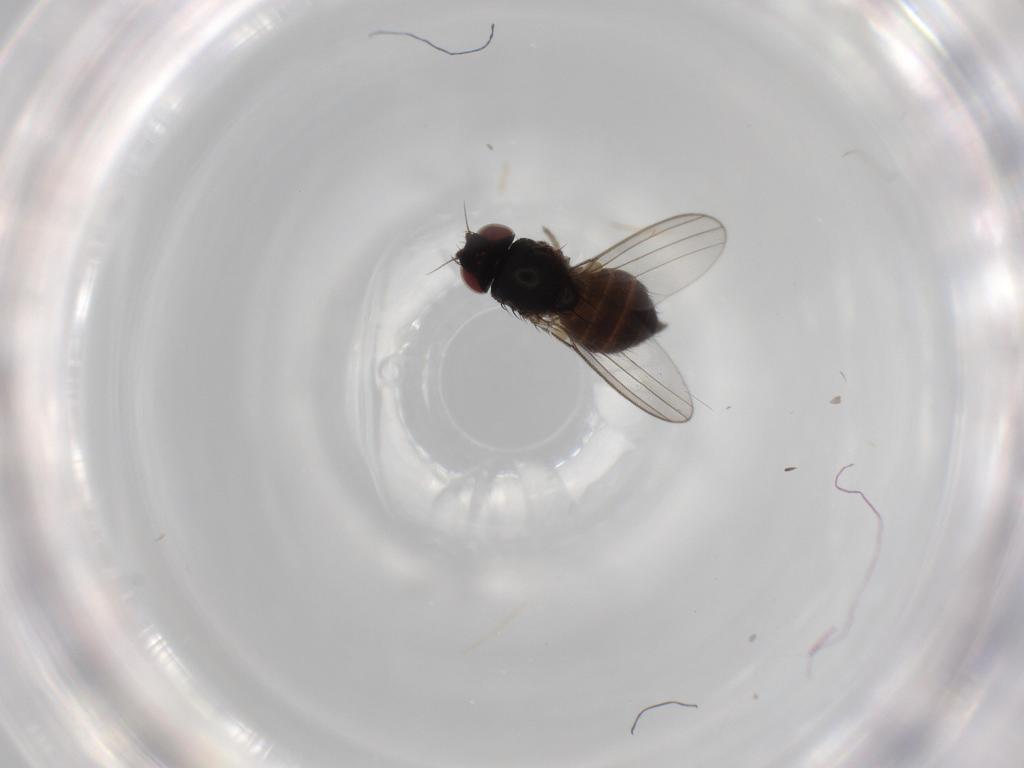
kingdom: Animalia
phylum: Arthropoda
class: Insecta
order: Diptera
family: Milichiidae
